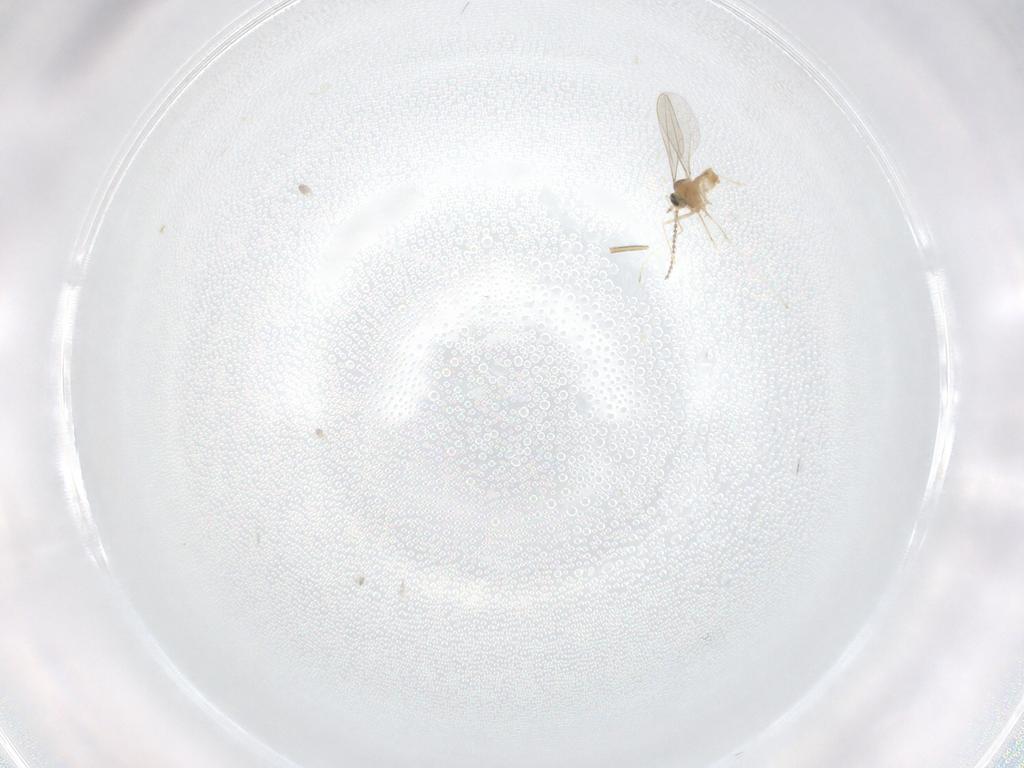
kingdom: Animalia
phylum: Arthropoda
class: Insecta
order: Diptera
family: Cecidomyiidae
